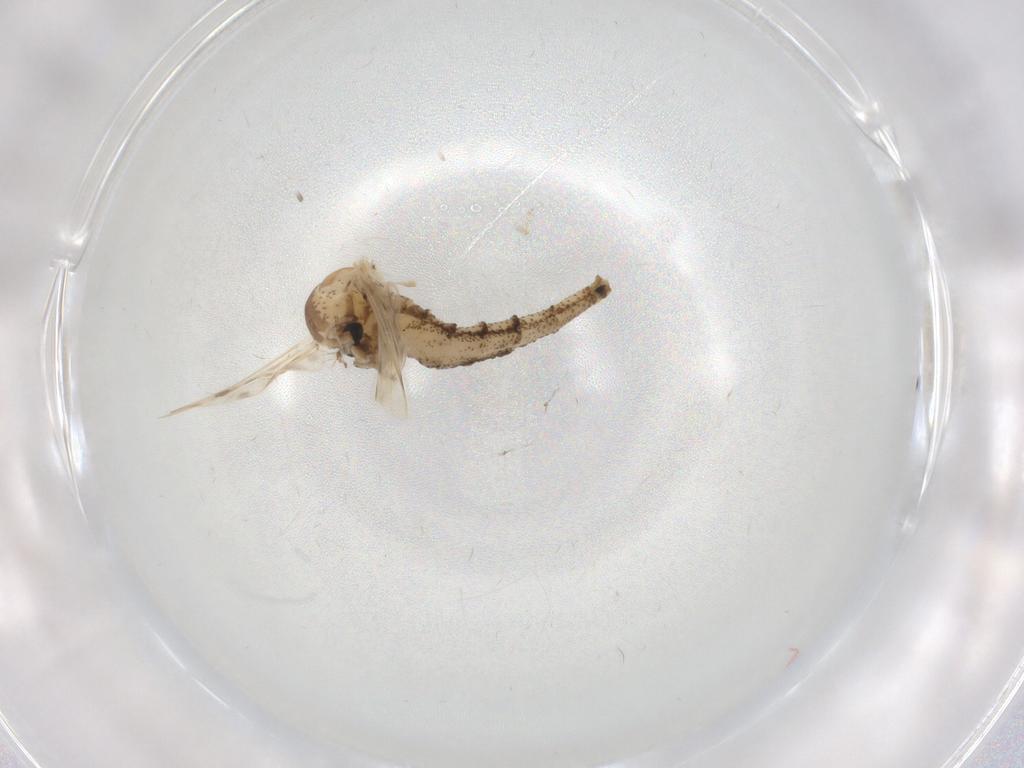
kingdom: Animalia
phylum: Arthropoda
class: Insecta
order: Diptera
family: Chaoboridae
